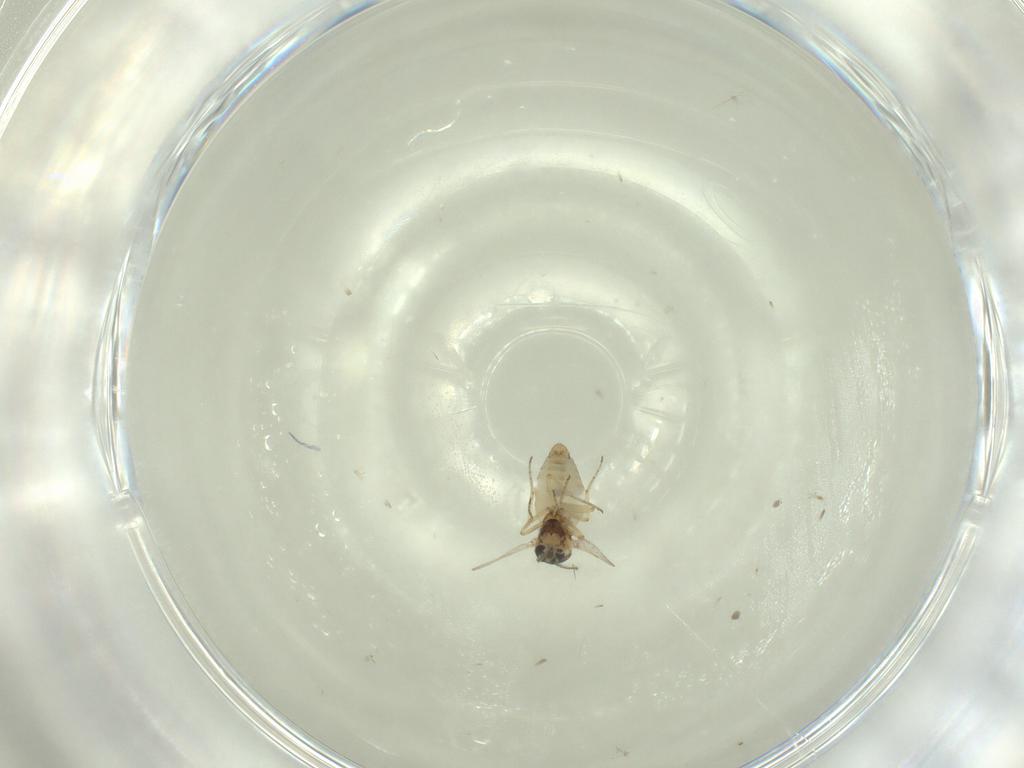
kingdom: Animalia
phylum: Arthropoda
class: Insecta
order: Diptera
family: Ceratopogonidae
